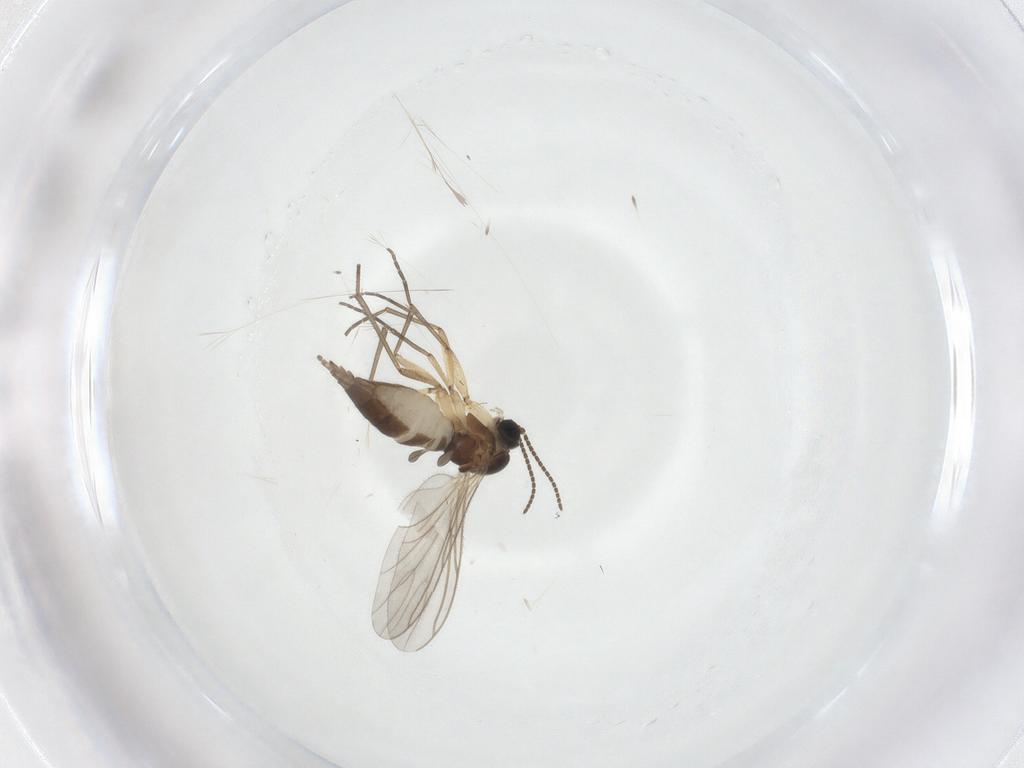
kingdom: Animalia
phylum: Arthropoda
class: Insecta
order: Diptera
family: Sciaridae
